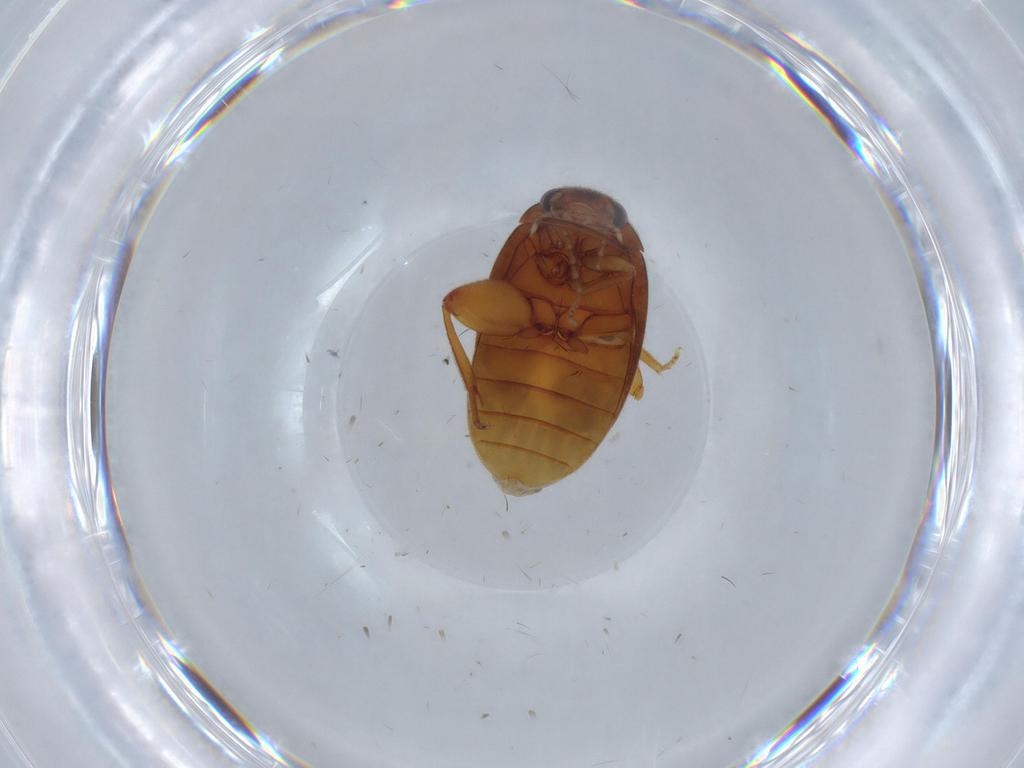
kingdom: Animalia
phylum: Arthropoda
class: Insecta
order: Coleoptera
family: Scirtidae
